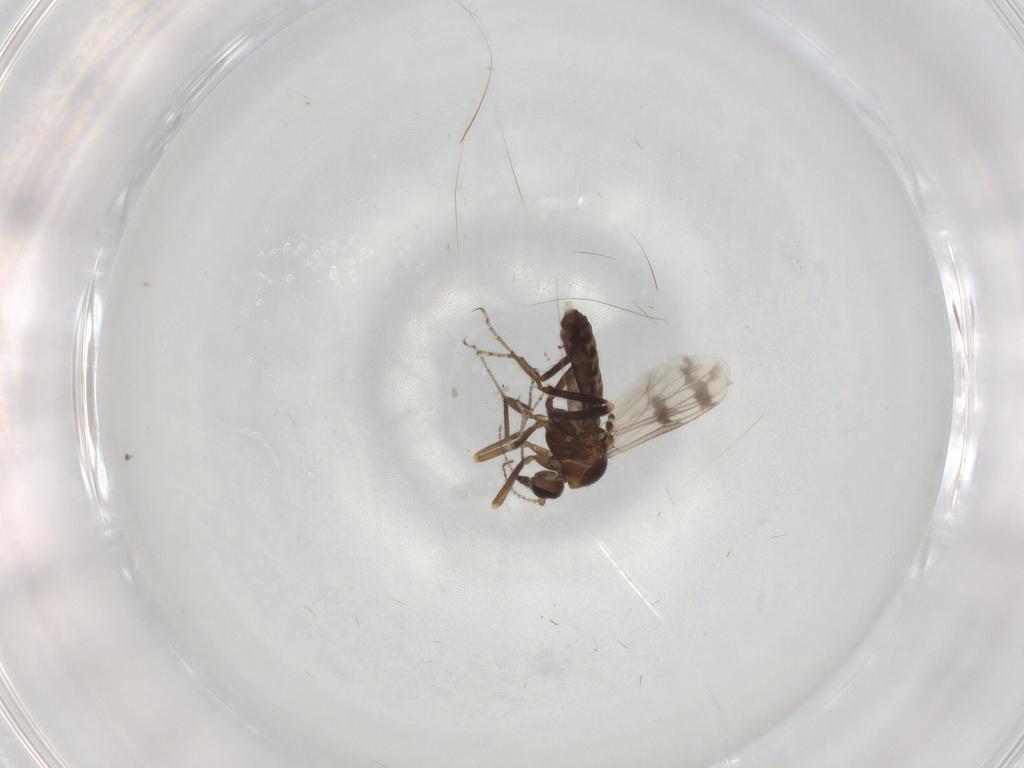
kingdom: Animalia
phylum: Arthropoda
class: Insecta
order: Diptera
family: Ceratopogonidae
